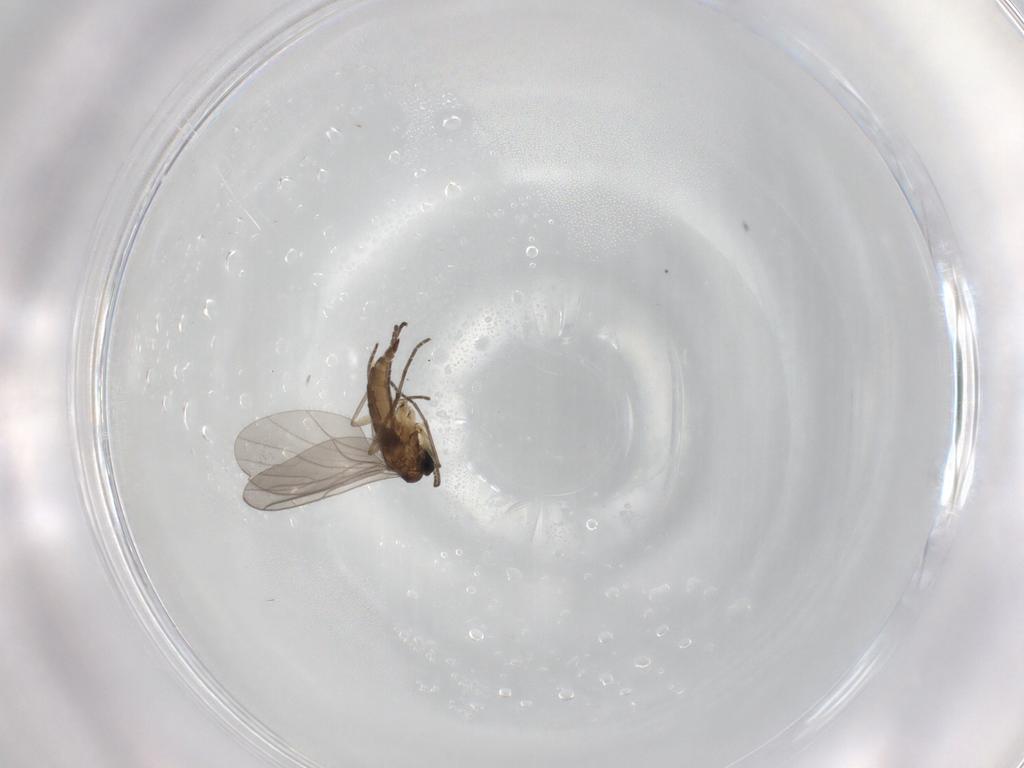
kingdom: Animalia
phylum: Arthropoda
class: Insecta
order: Diptera
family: Sciaridae
